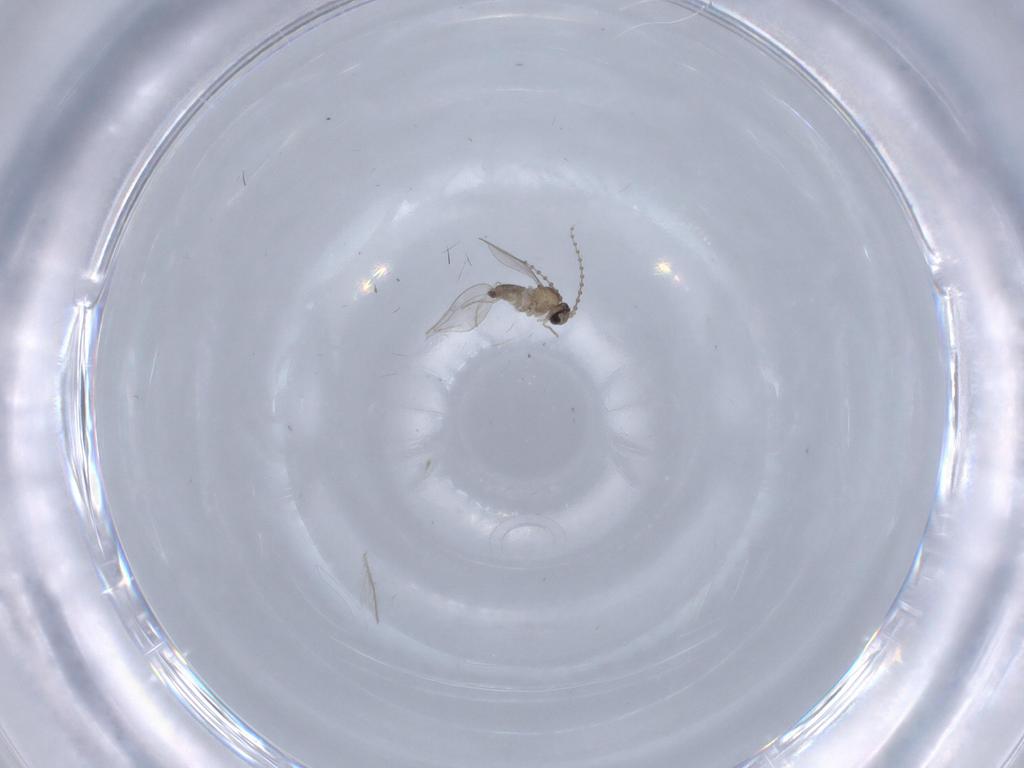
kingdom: Animalia
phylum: Arthropoda
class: Insecta
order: Diptera
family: Cecidomyiidae
